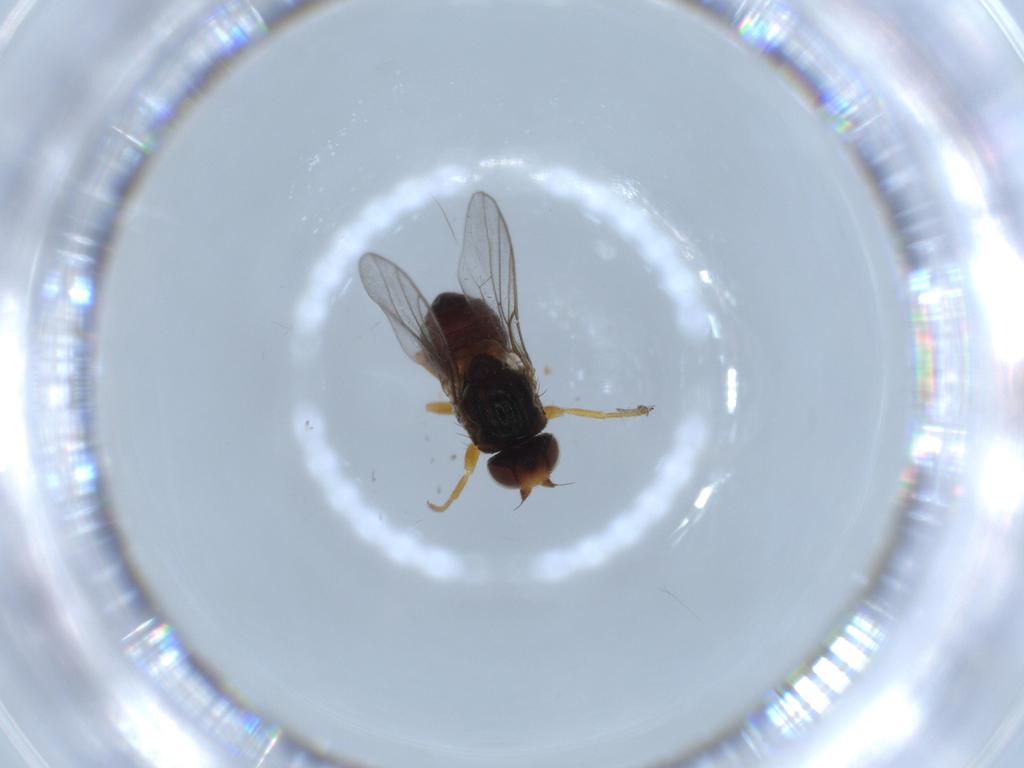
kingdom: Animalia
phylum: Arthropoda
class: Insecta
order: Diptera
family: Chloropidae
